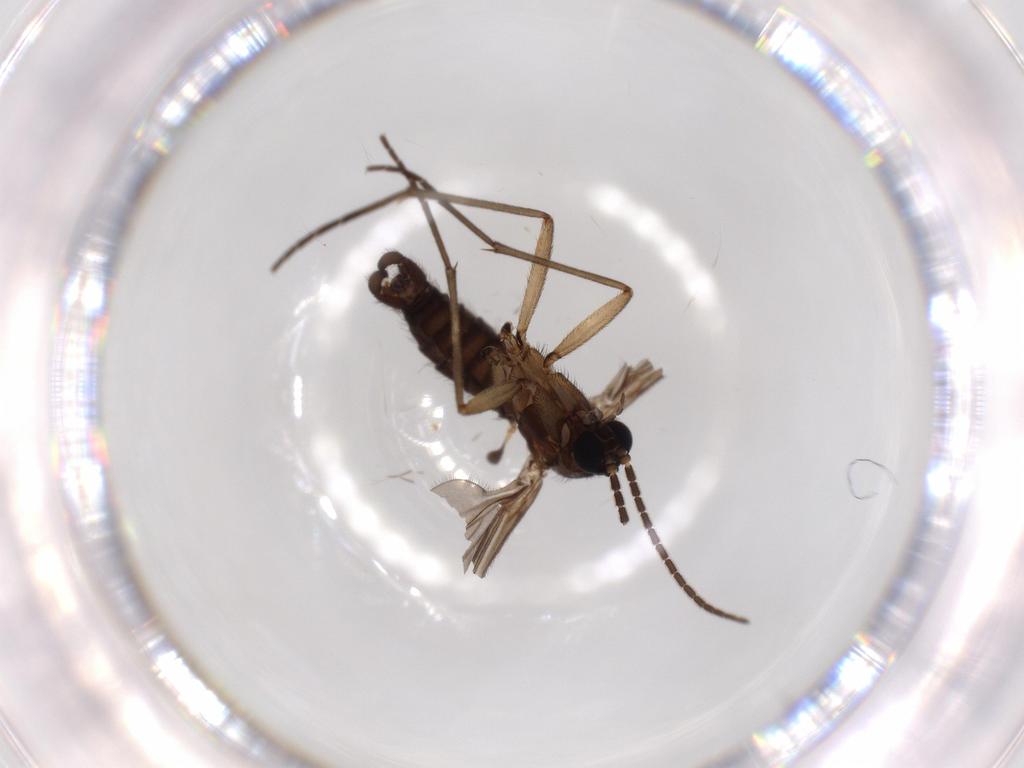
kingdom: Animalia
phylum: Arthropoda
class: Insecta
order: Diptera
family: Sciaridae
